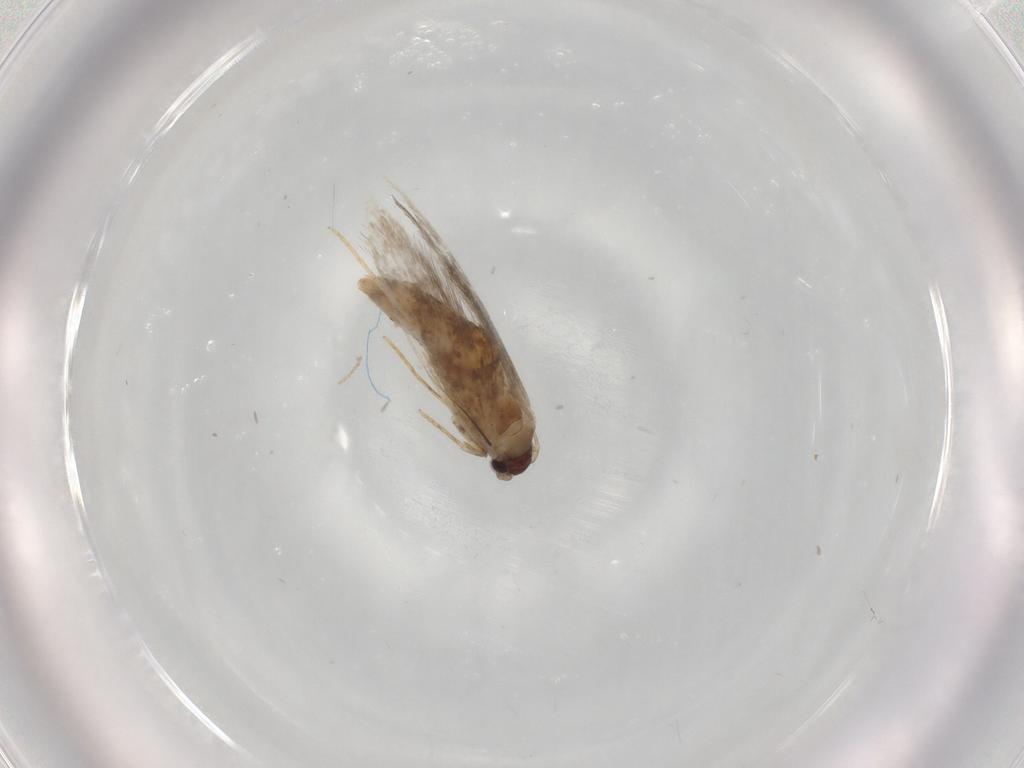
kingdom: Animalia
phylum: Arthropoda
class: Insecta
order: Lepidoptera
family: Tineidae
